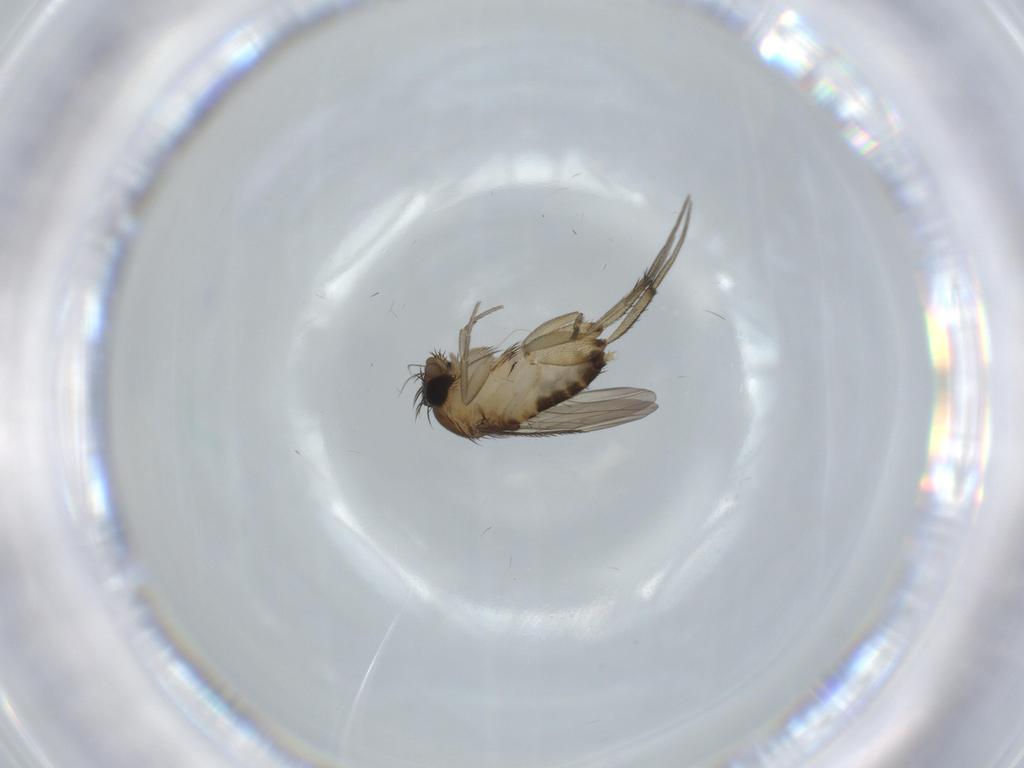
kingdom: Animalia
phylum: Arthropoda
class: Insecta
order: Diptera
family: Phoridae
